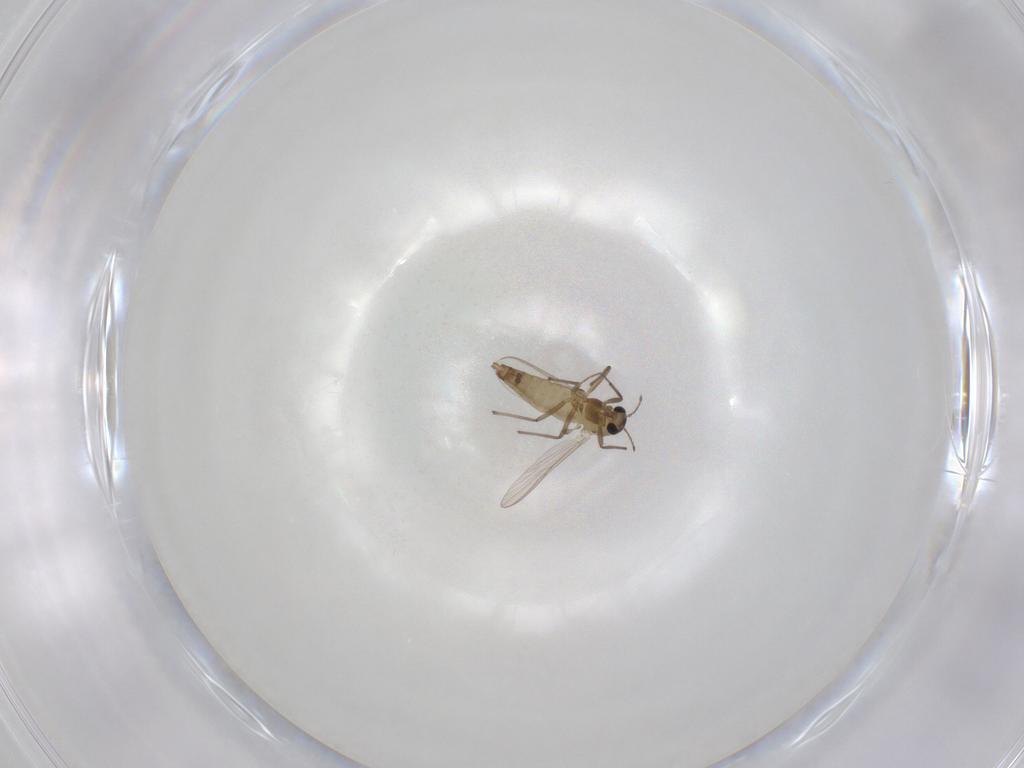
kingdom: Animalia
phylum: Arthropoda
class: Insecta
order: Diptera
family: Chironomidae
